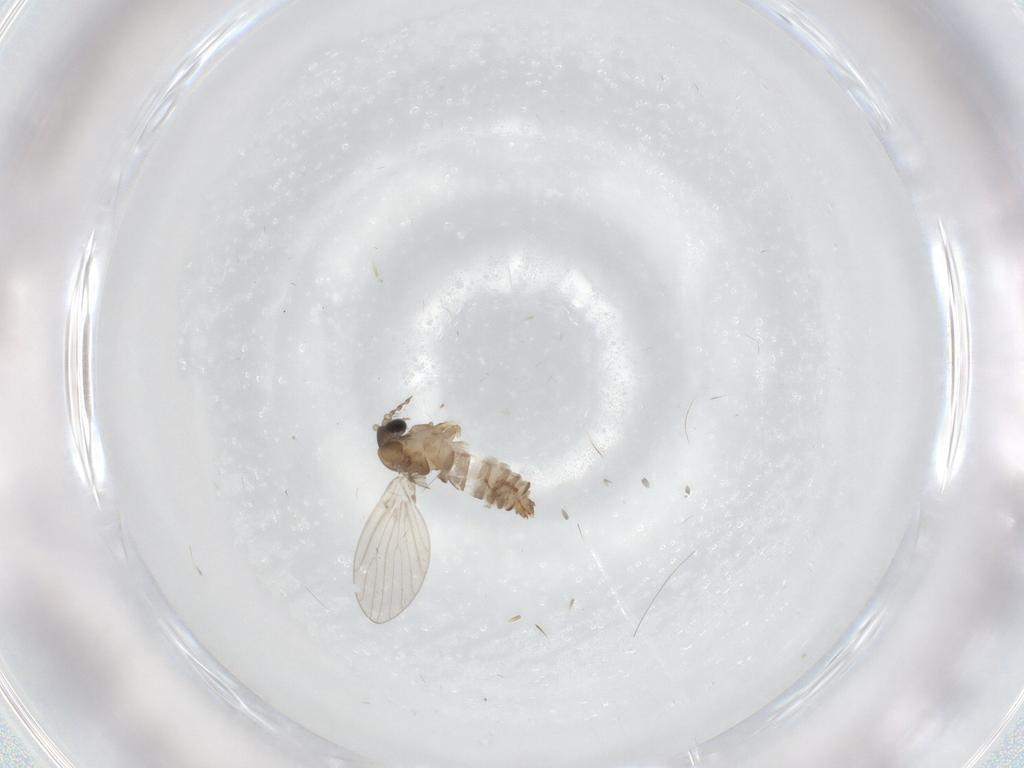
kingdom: Animalia
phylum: Arthropoda
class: Insecta
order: Diptera
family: Psychodidae
